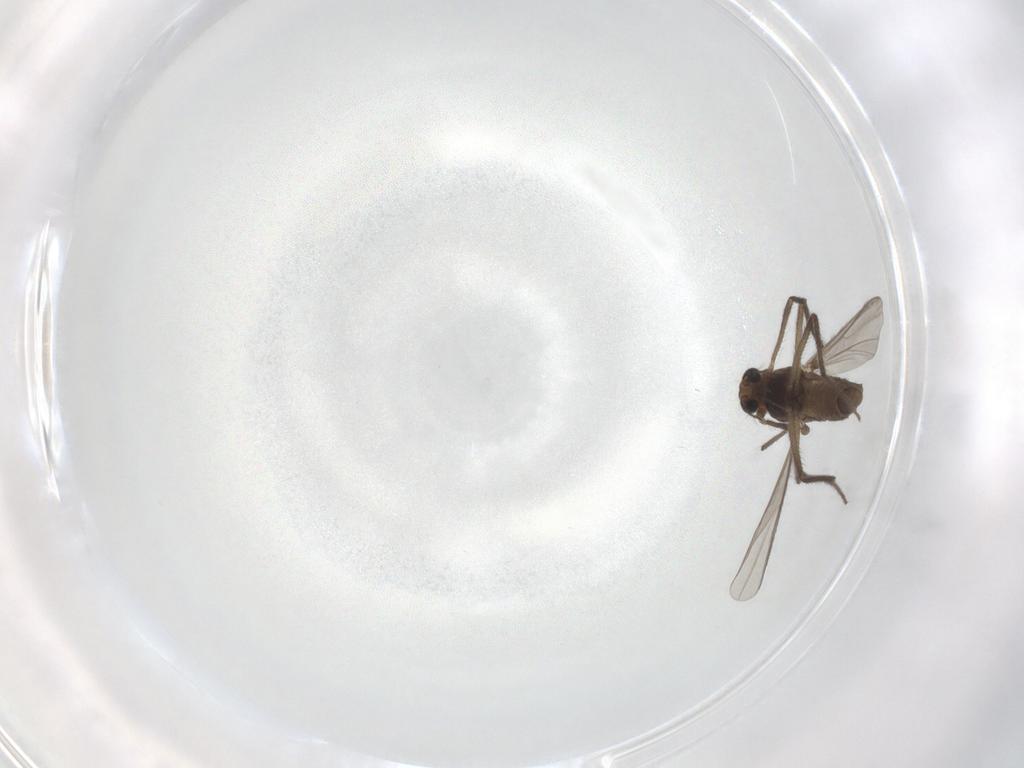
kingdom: Animalia
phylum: Arthropoda
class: Insecta
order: Diptera
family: Chironomidae
